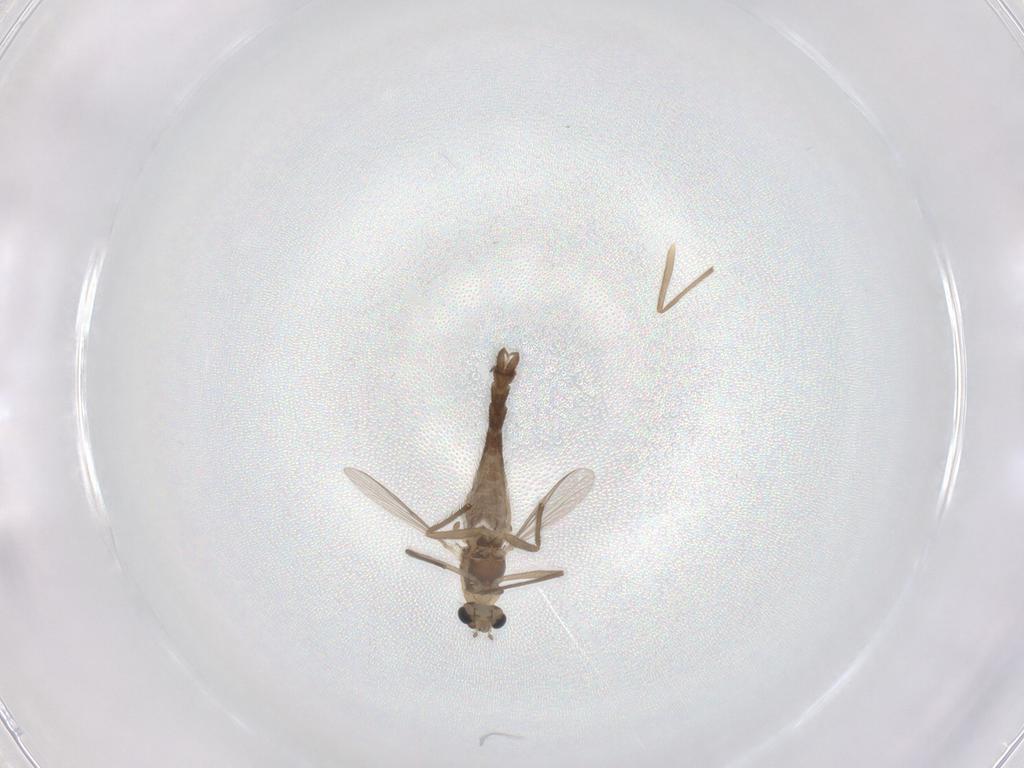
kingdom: Animalia
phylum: Arthropoda
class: Insecta
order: Diptera
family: Chironomidae
